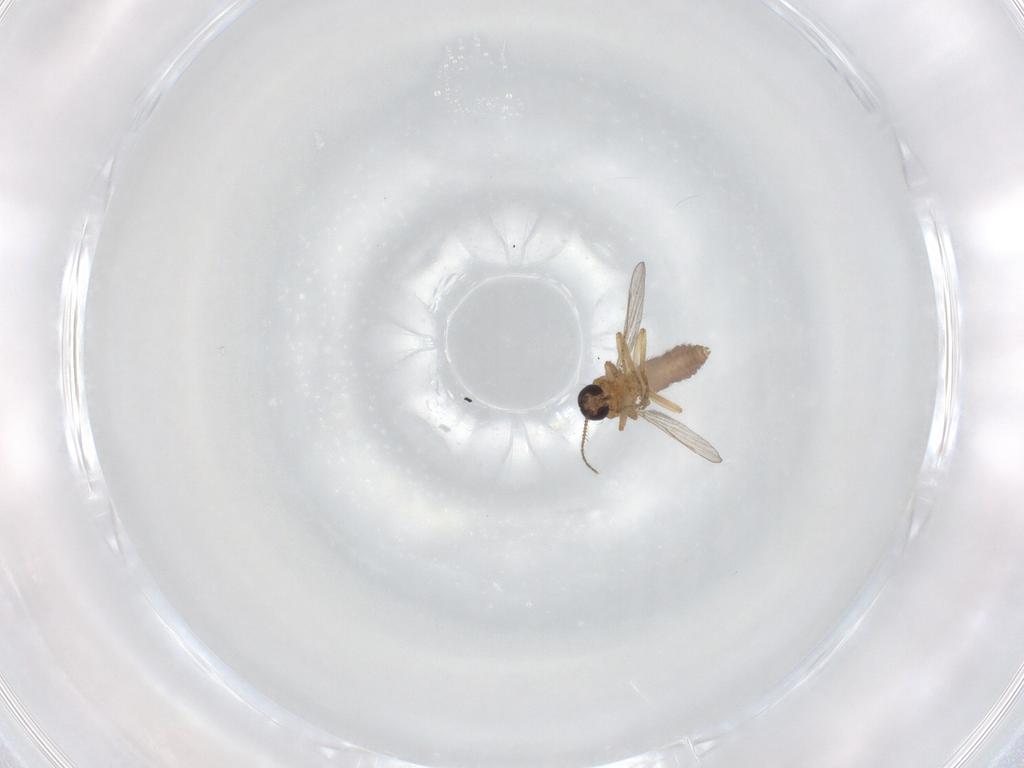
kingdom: Animalia
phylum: Arthropoda
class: Insecta
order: Diptera
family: Ceratopogonidae
